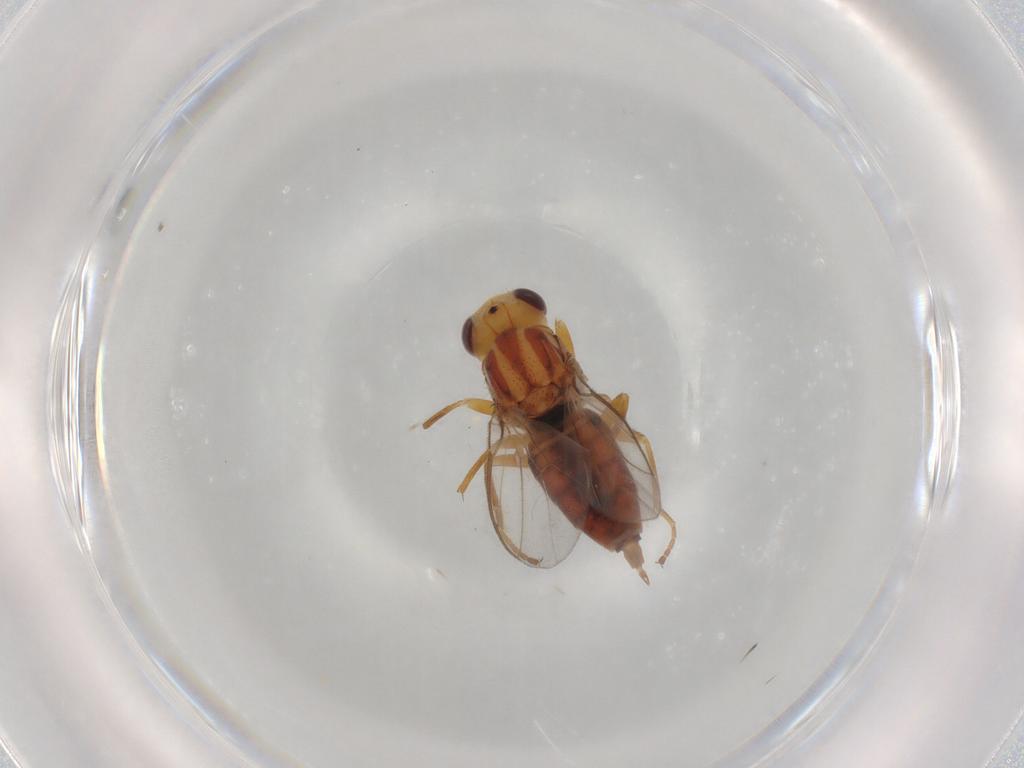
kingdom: Animalia
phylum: Arthropoda
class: Insecta
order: Diptera
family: Chloropidae
